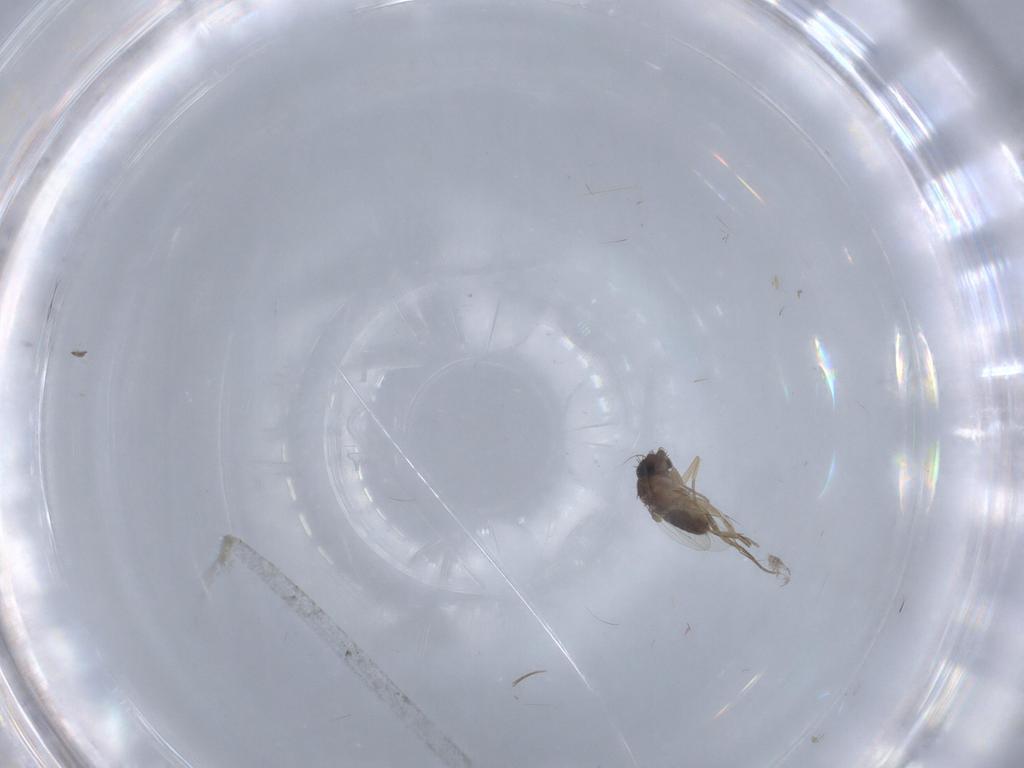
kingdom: Animalia
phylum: Arthropoda
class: Insecta
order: Diptera
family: Phoridae
